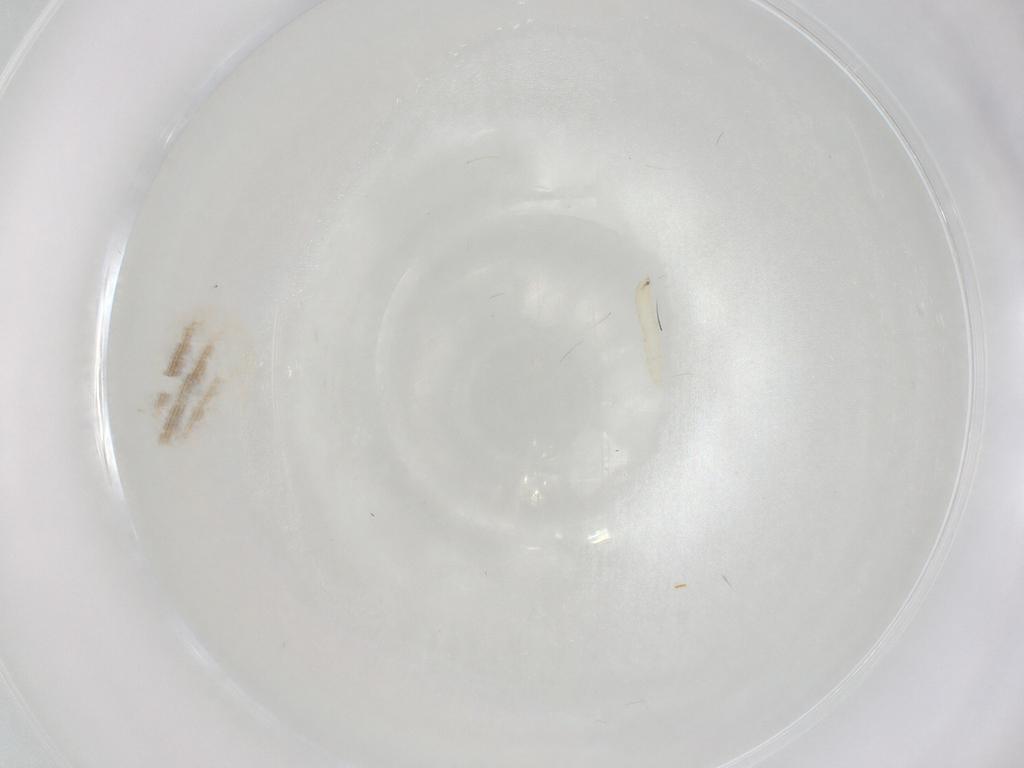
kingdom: Animalia
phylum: Arthropoda
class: Insecta
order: Diptera
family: Tachinidae
